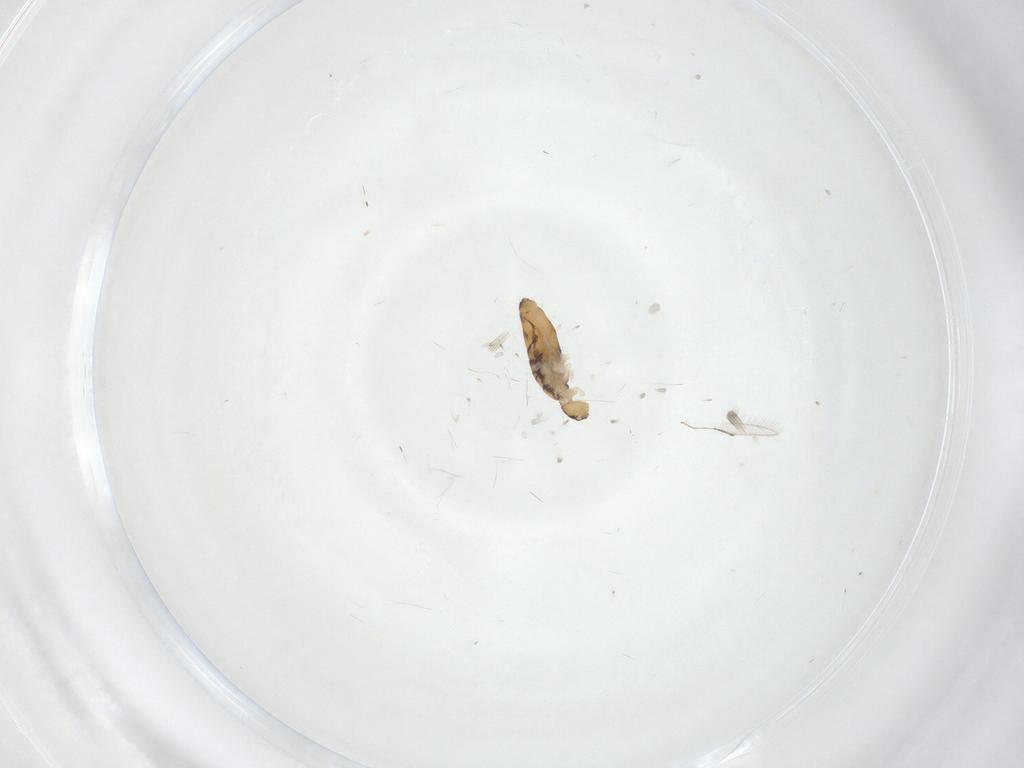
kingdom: Animalia
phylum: Arthropoda
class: Collembola
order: Entomobryomorpha
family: Entomobryidae
